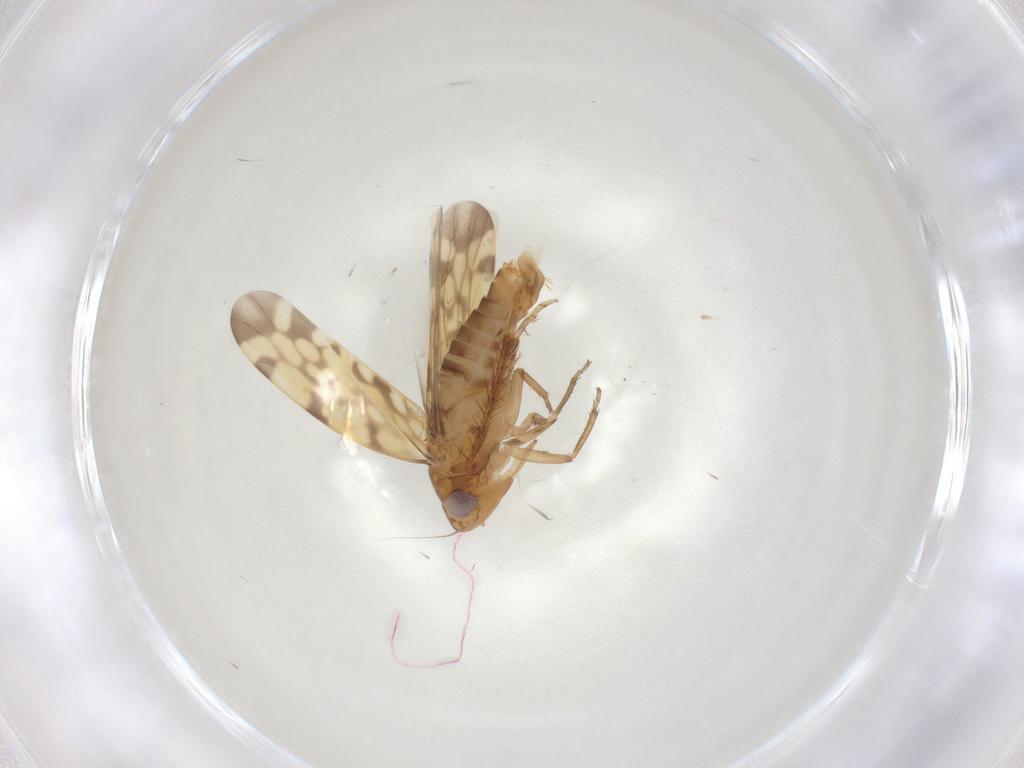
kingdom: Animalia
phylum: Arthropoda
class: Insecta
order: Hemiptera
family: Cicadellidae
